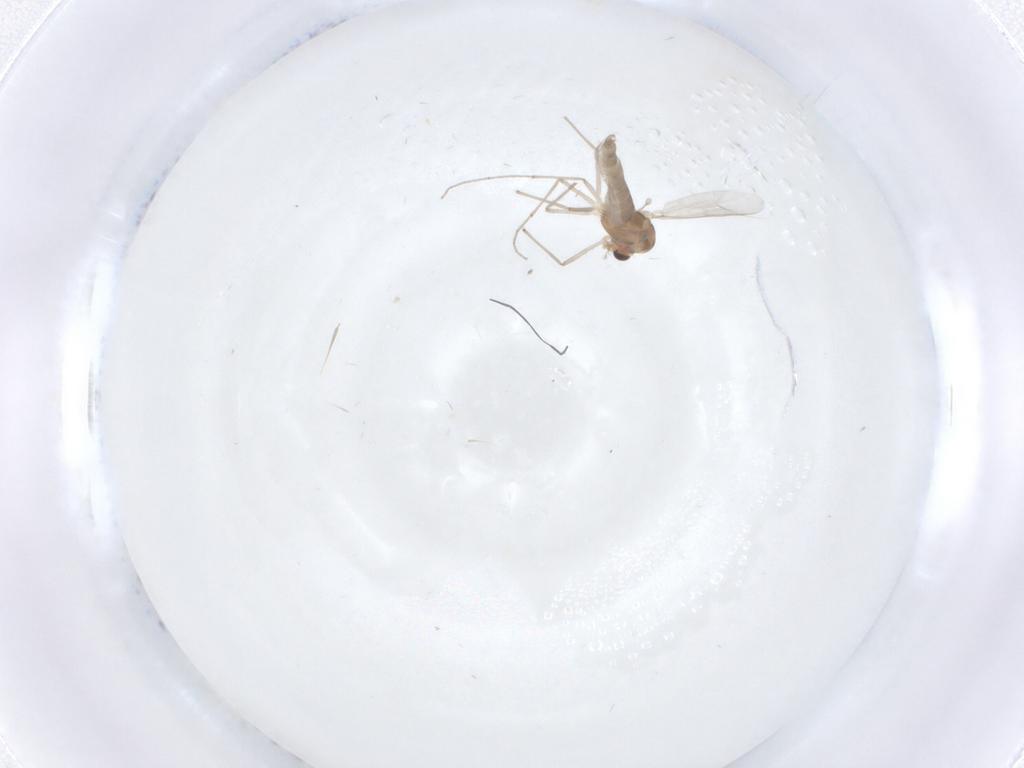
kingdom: Animalia
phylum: Arthropoda
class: Insecta
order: Diptera
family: Chironomidae
